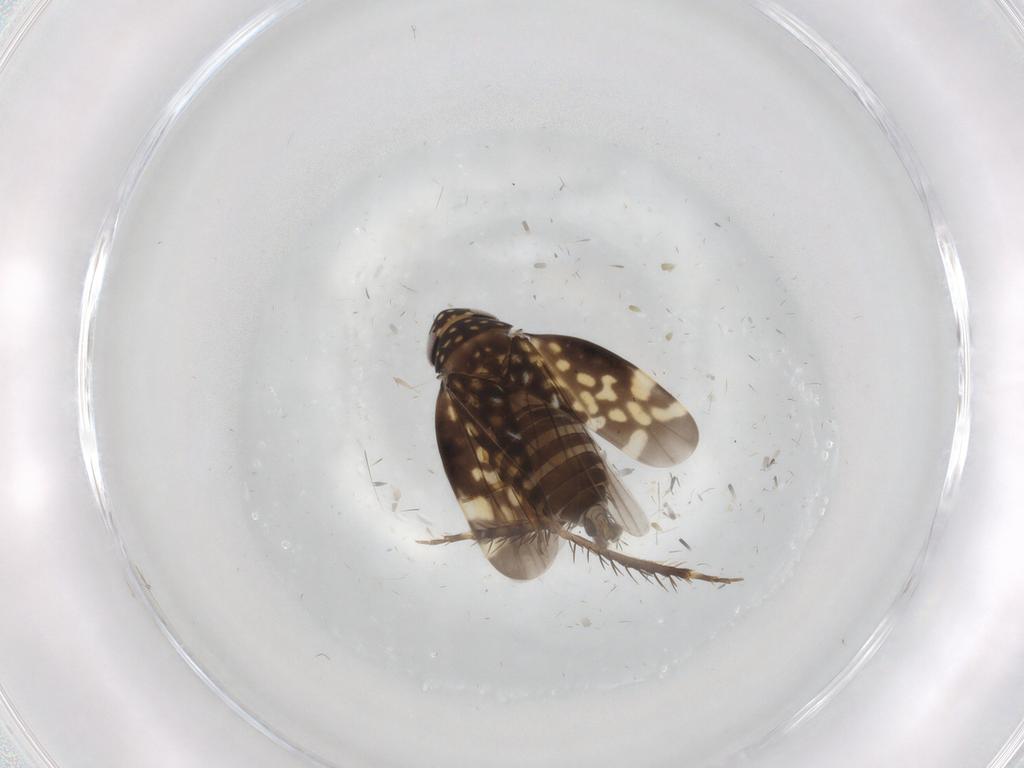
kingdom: Animalia
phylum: Arthropoda
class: Insecta
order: Hemiptera
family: Cicadellidae
